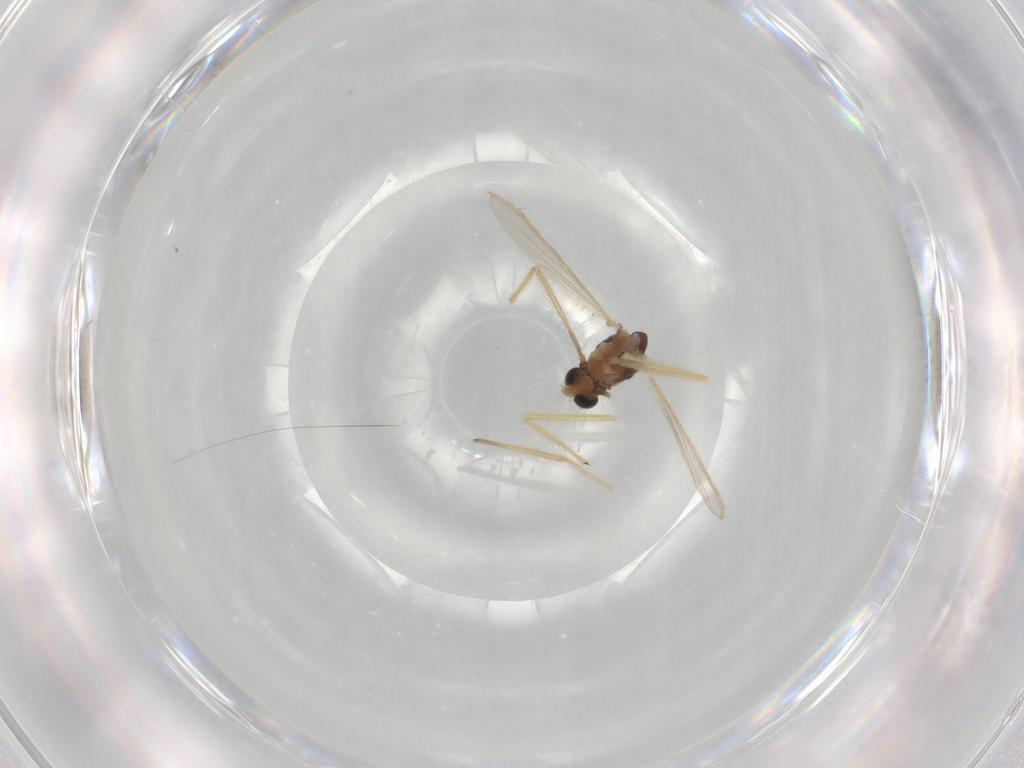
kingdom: Animalia
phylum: Arthropoda
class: Insecta
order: Diptera
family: Chironomidae
